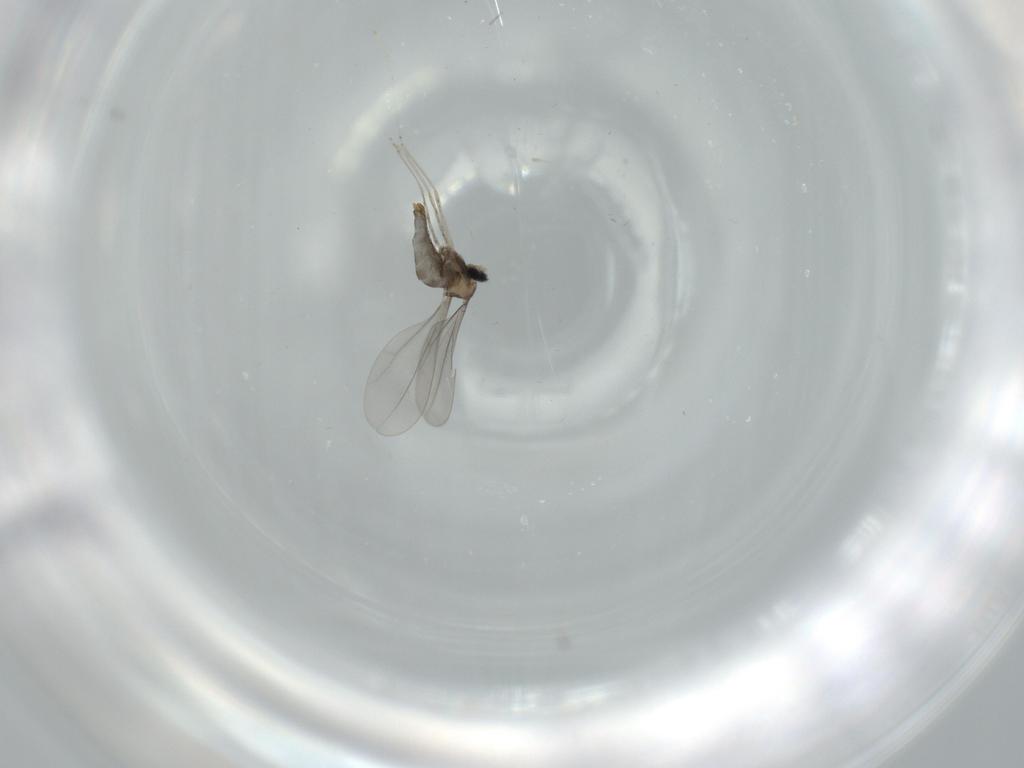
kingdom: Animalia
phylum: Arthropoda
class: Insecta
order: Diptera
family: Cecidomyiidae
